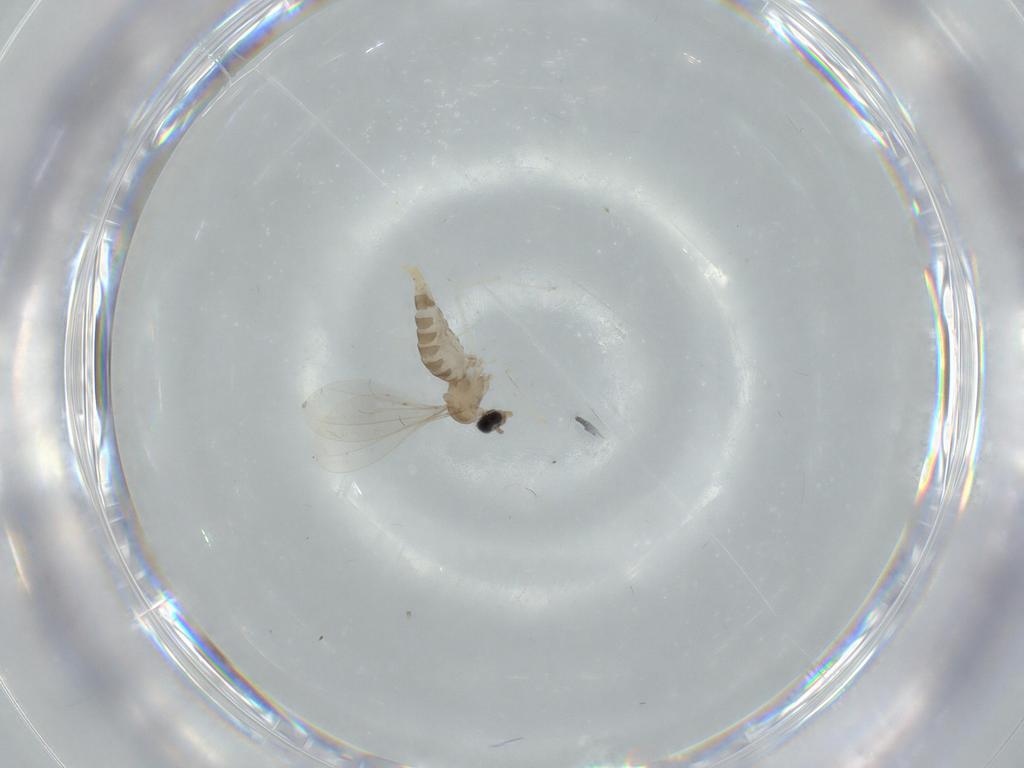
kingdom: Animalia
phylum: Arthropoda
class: Insecta
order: Diptera
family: Cecidomyiidae
